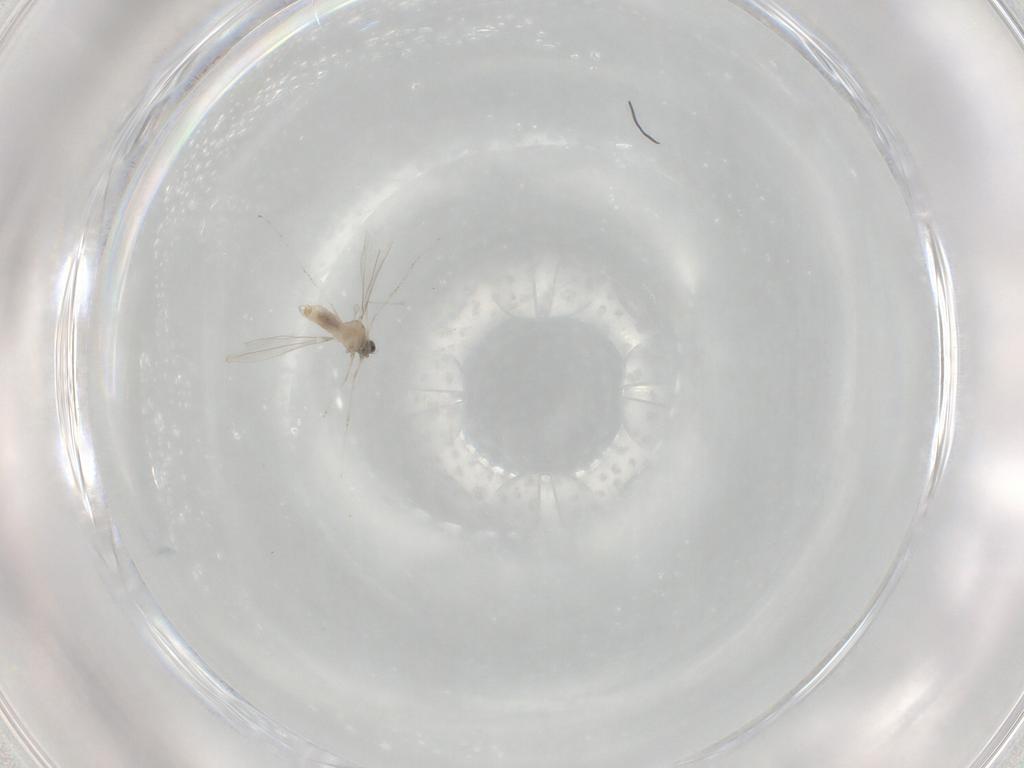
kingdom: Animalia
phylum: Arthropoda
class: Insecta
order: Diptera
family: Cecidomyiidae
